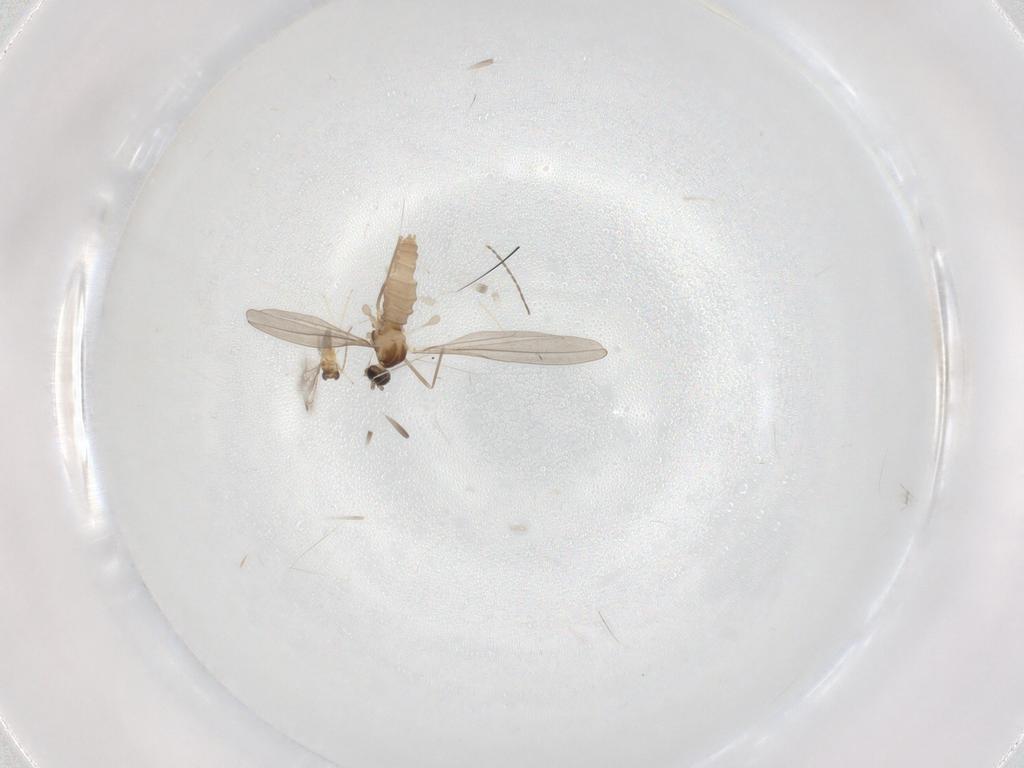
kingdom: Animalia
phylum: Arthropoda
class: Insecta
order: Diptera
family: Cecidomyiidae
